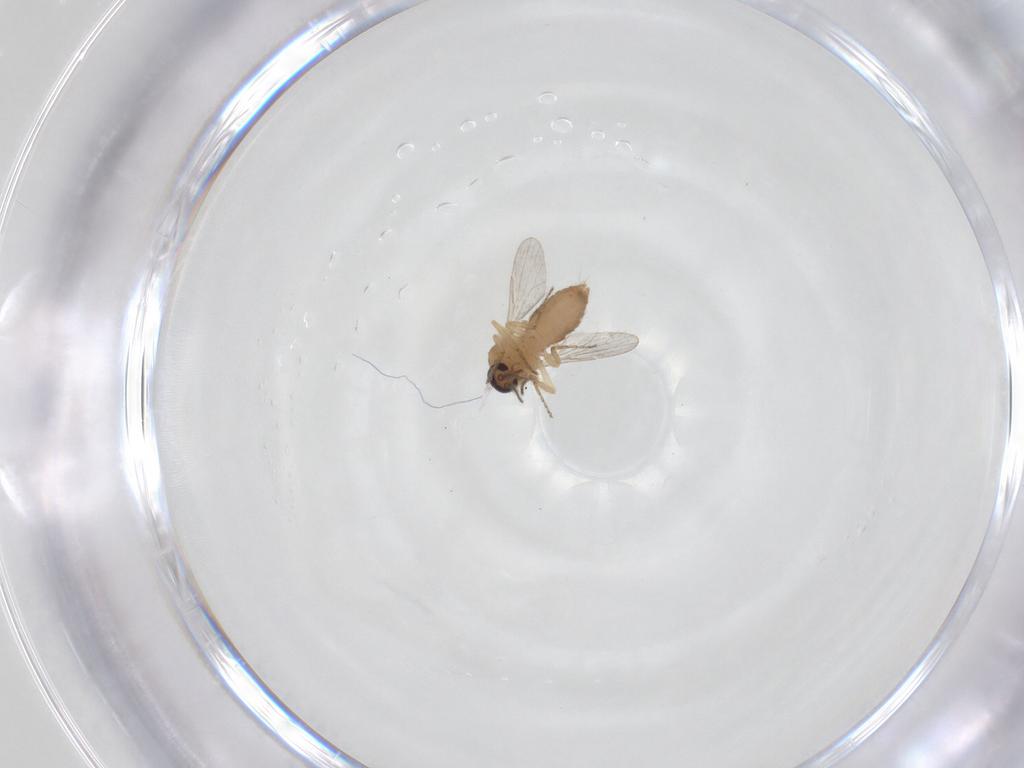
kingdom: Animalia
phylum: Arthropoda
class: Insecta
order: Diptera
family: Ceratopogonidae
